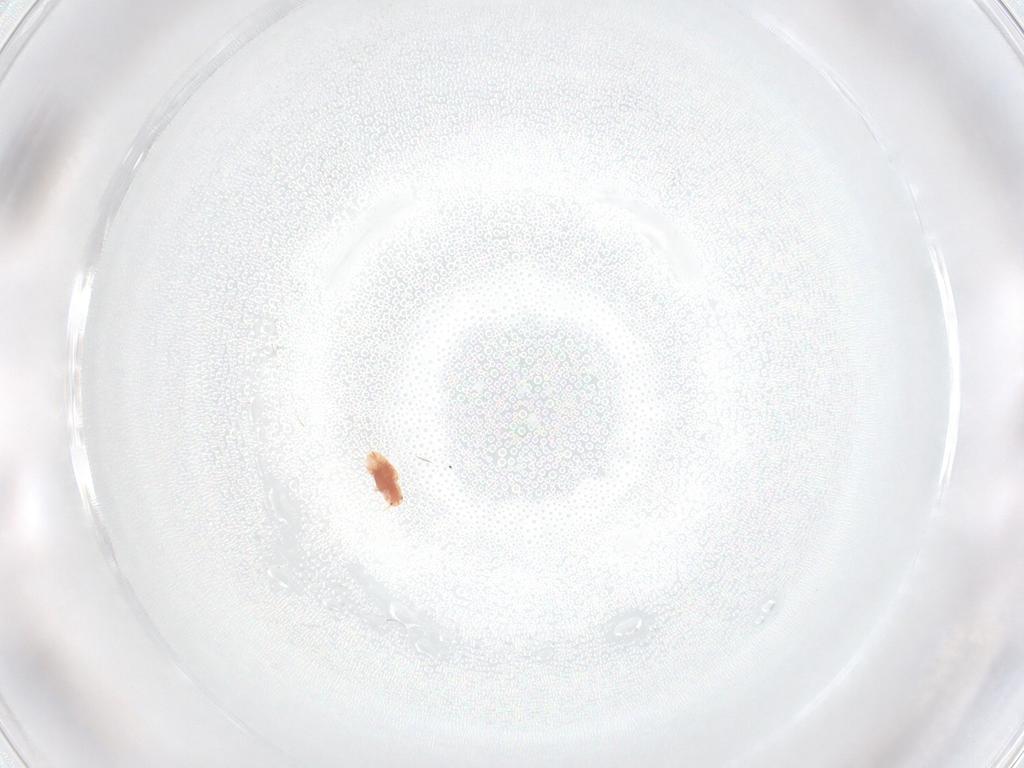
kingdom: Animalia
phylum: Arthropoda
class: Insecta
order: Hemiptera
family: Coccidae
